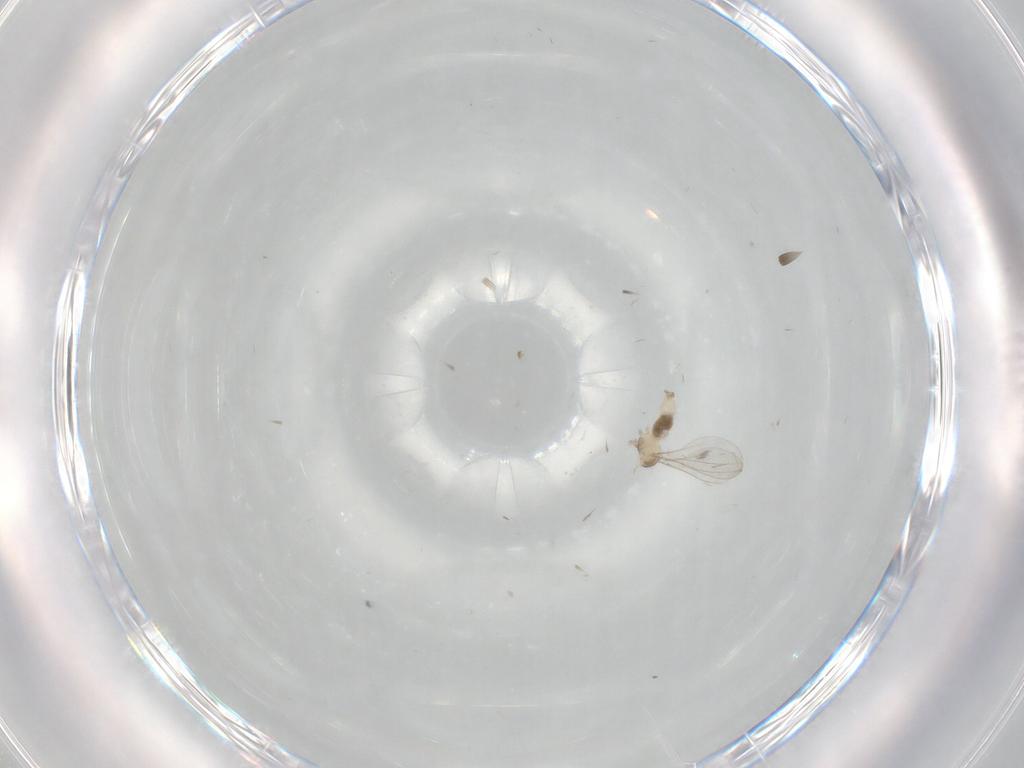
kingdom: Animalia
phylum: Arthropoda
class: Insecta
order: Diptera
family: Cecidomyiidae
